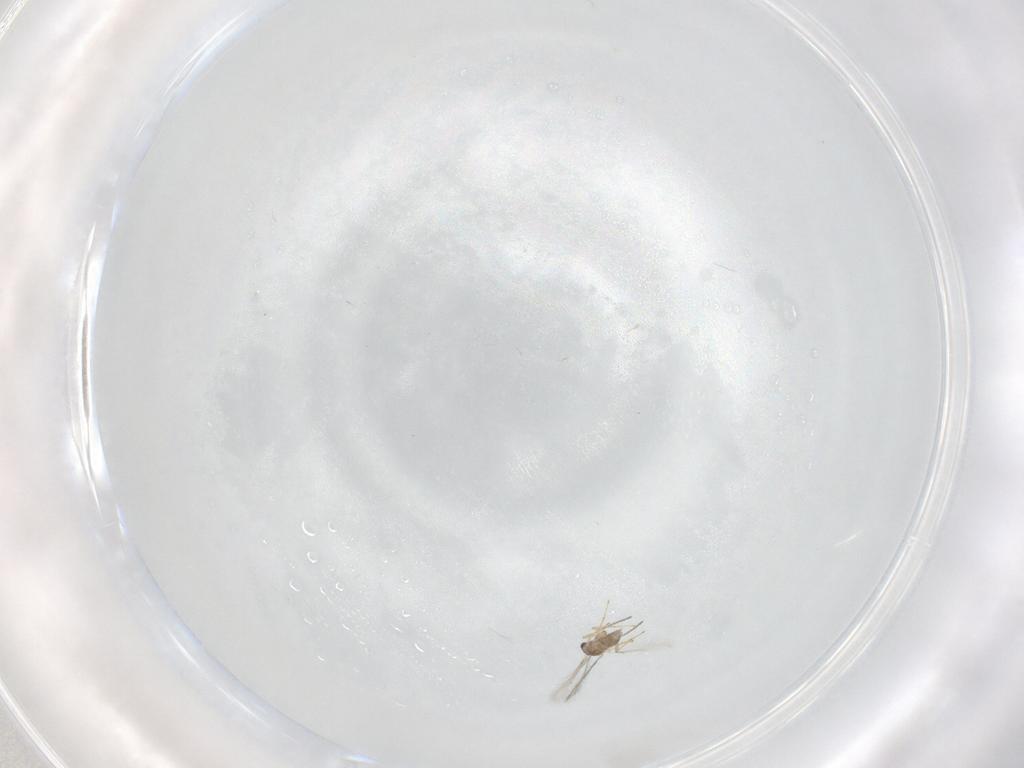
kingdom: Animalia
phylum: Arthropoda
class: Insecta
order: Hymenoptera
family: Mymaridae
